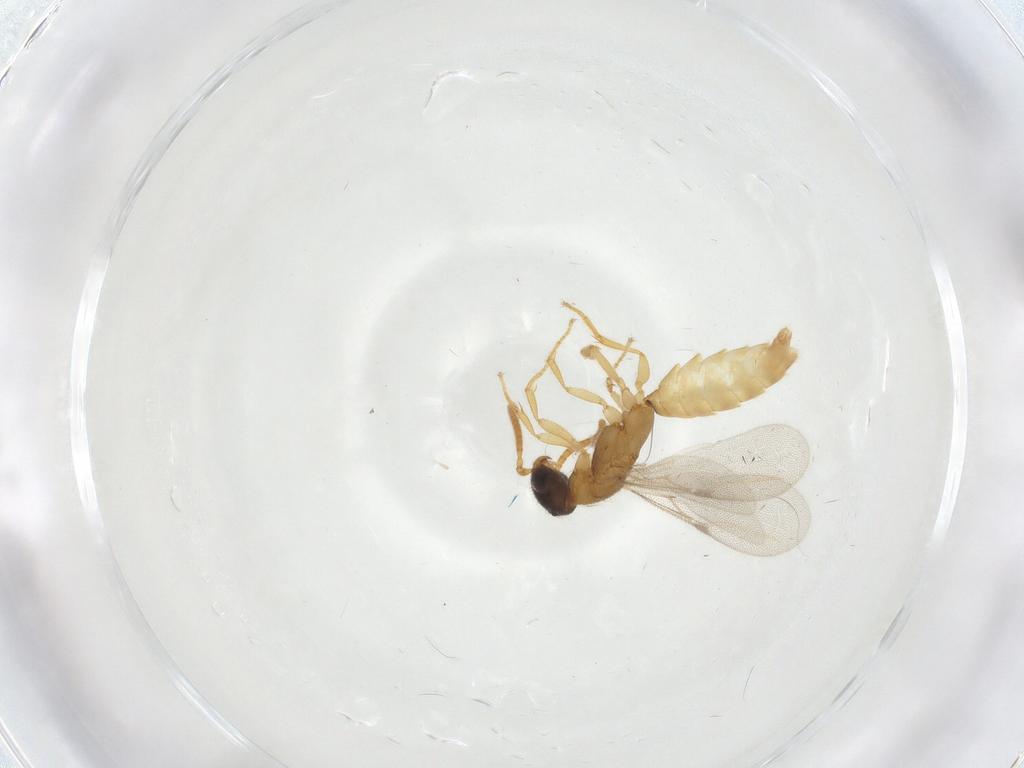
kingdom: Animalia
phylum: Arthropoda
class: Insecta
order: Hymenoptera
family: Bethylidae
